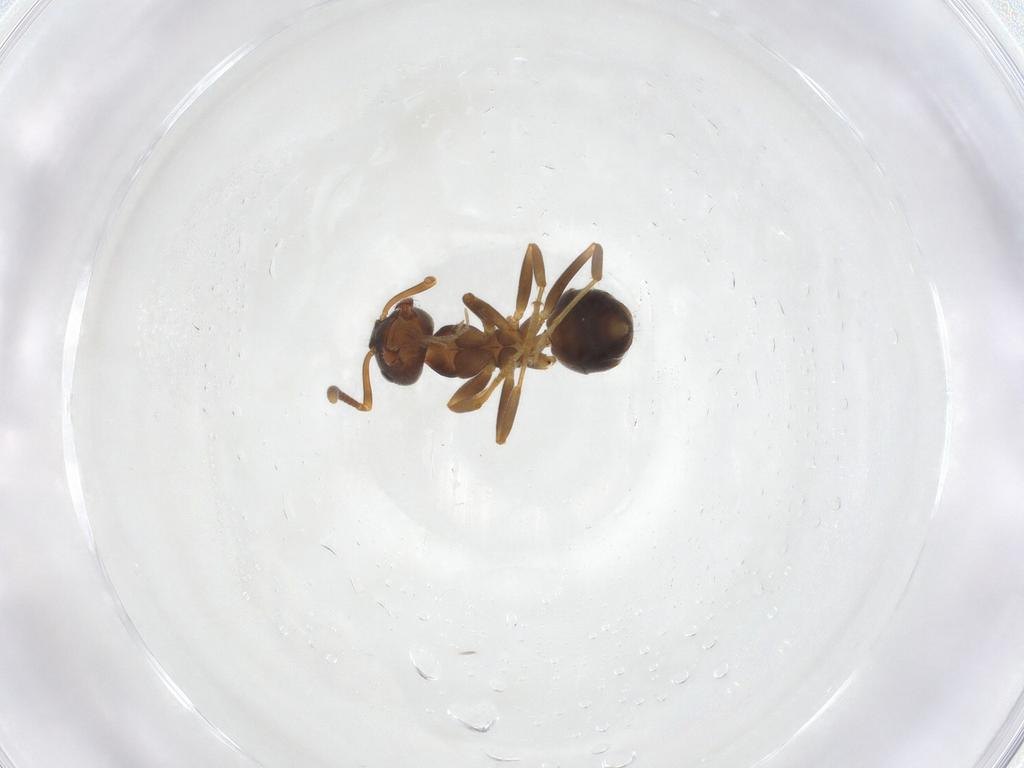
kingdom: Animalia
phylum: Arthropoda
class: Insecta
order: Hymenoptera
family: Formicidae
